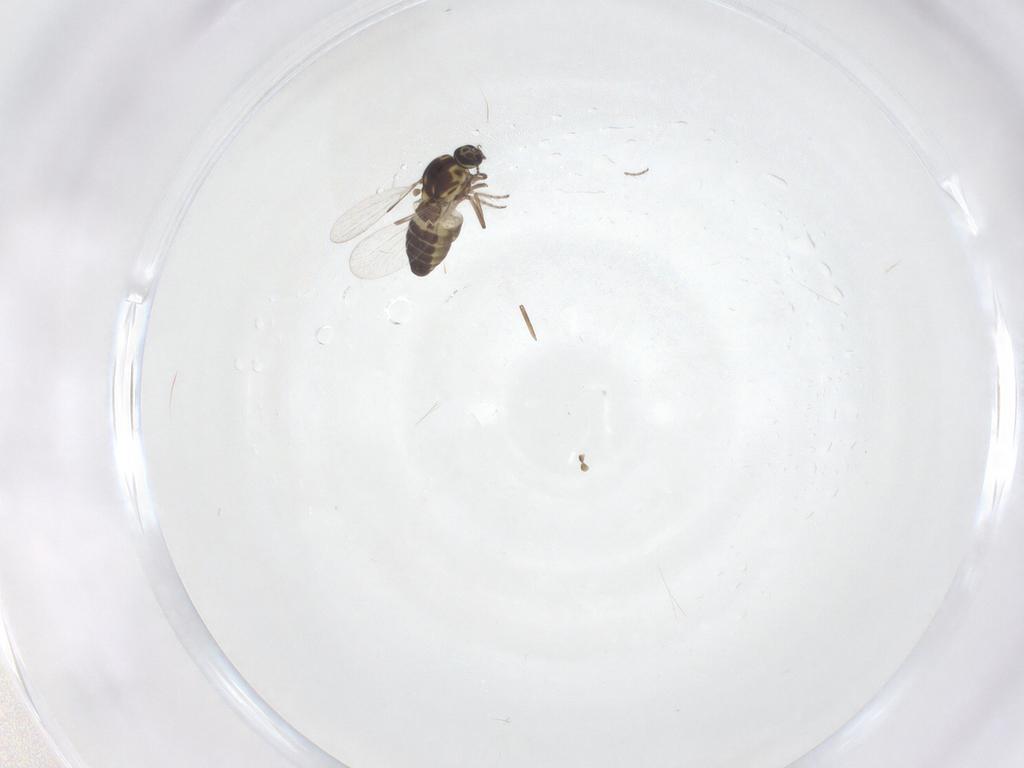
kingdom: Animalia
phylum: Arthropoda
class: Insecta
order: Diptera
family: Ceratopogonidae
